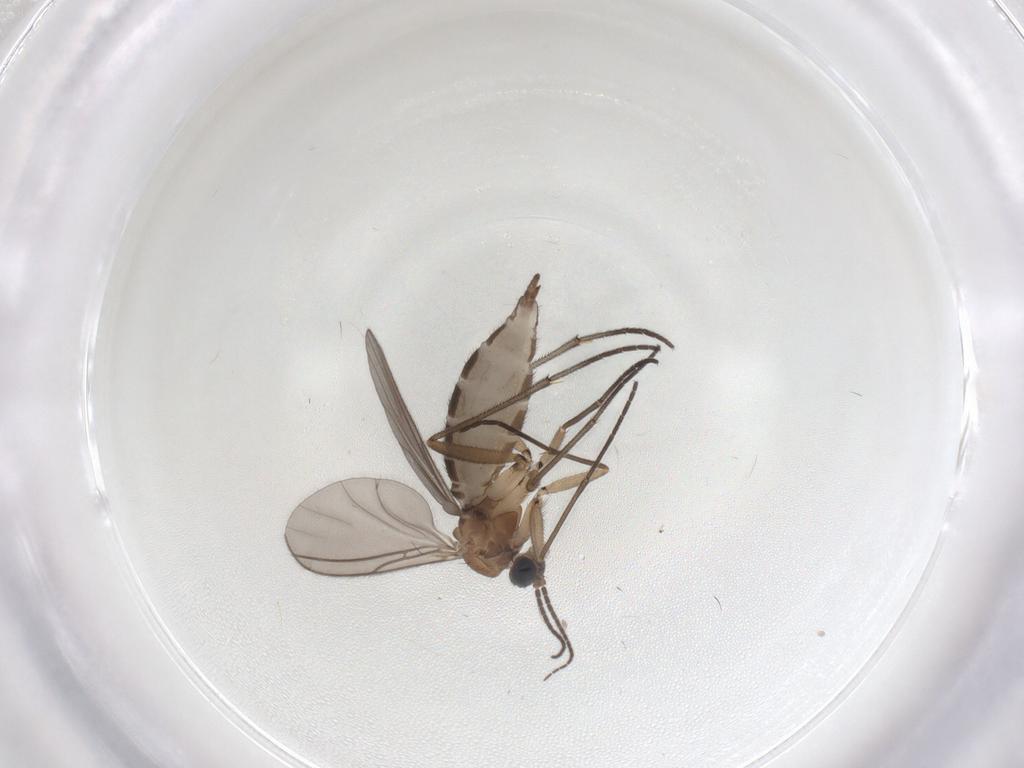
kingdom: Animalia
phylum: Arthropoda
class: Insecta
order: Diptera
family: Sciaridae
